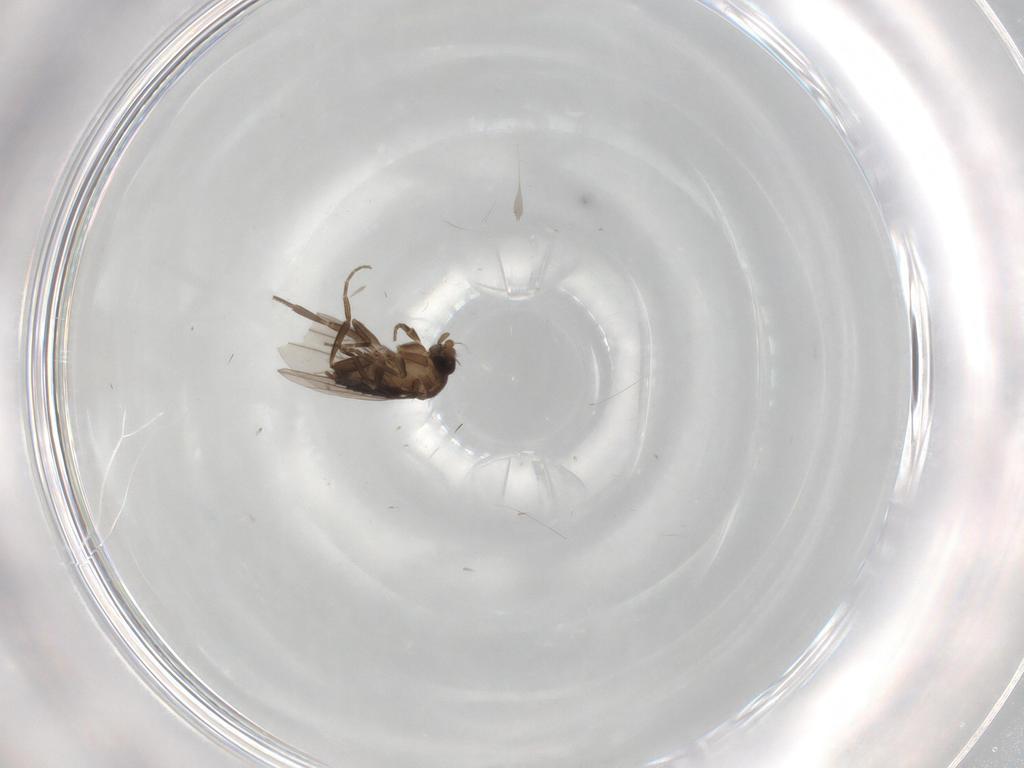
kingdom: Animalia
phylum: Arthropoda
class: Insecta
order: Diptera
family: Phoridae
